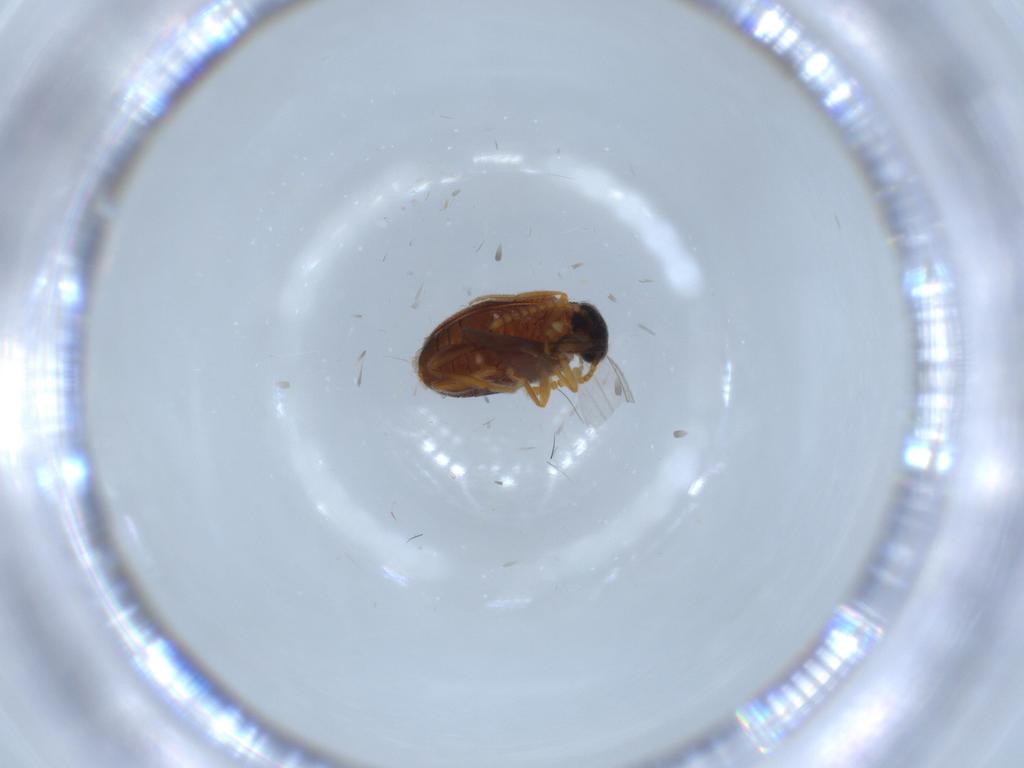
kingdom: Animalia
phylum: Arthropoda
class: Insecta
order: Coleoptera
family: Aderidae
